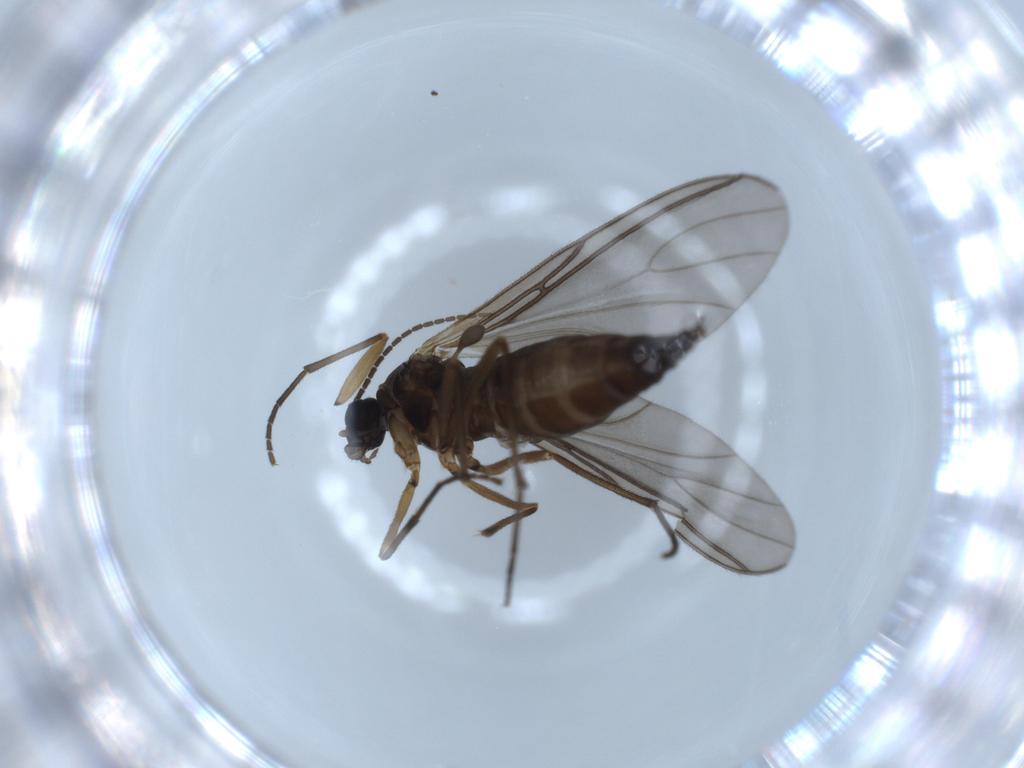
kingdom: Animalia
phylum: Arthropoda
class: Insecta
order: Diptera
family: Sciaridae
